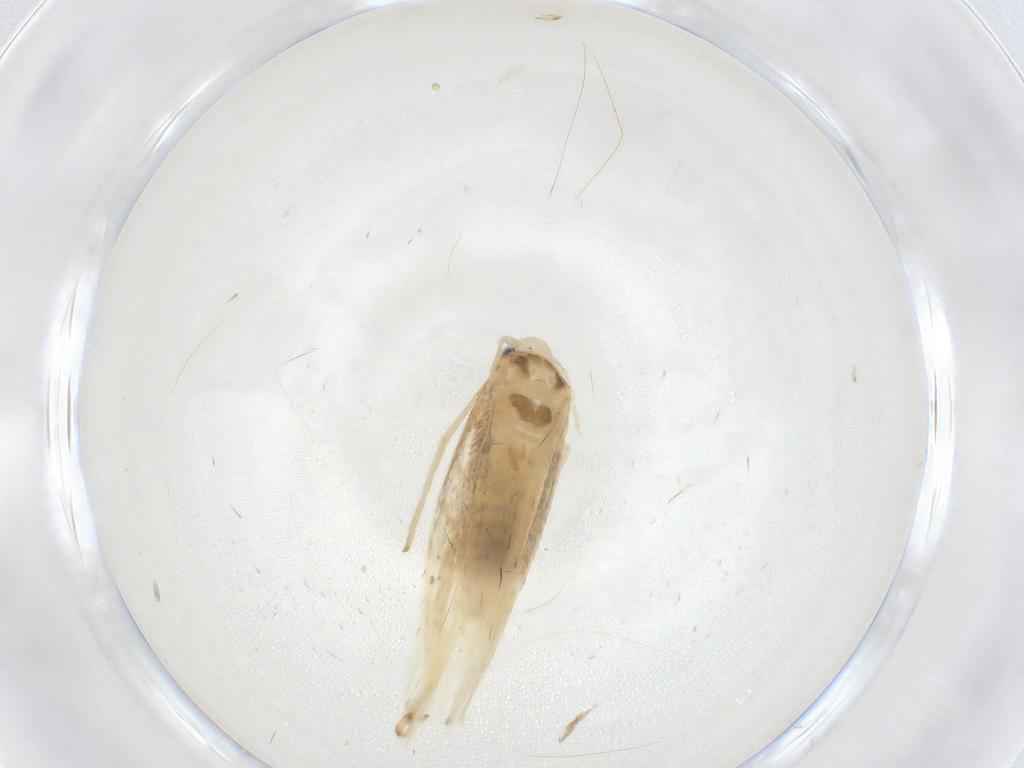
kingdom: Animalia
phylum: Arthropoda
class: Insecta
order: Lepidoptera
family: Gracillariidae
